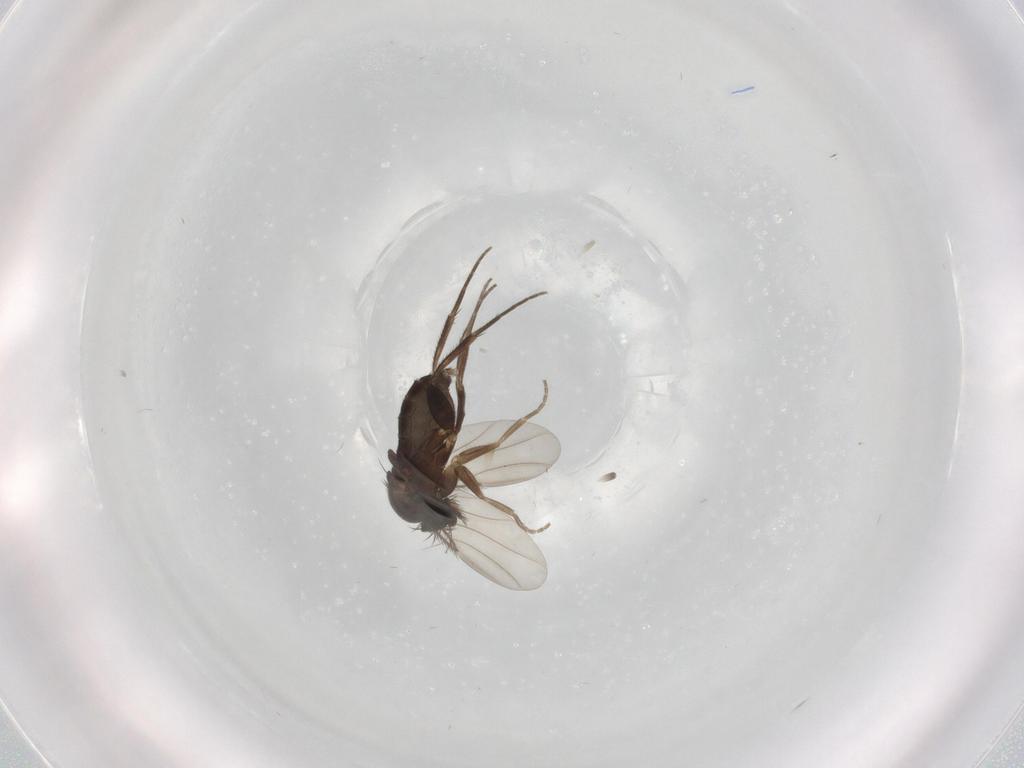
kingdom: Animalia
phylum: Arthropoda
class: Insecta
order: Diptera
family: Phoridae
